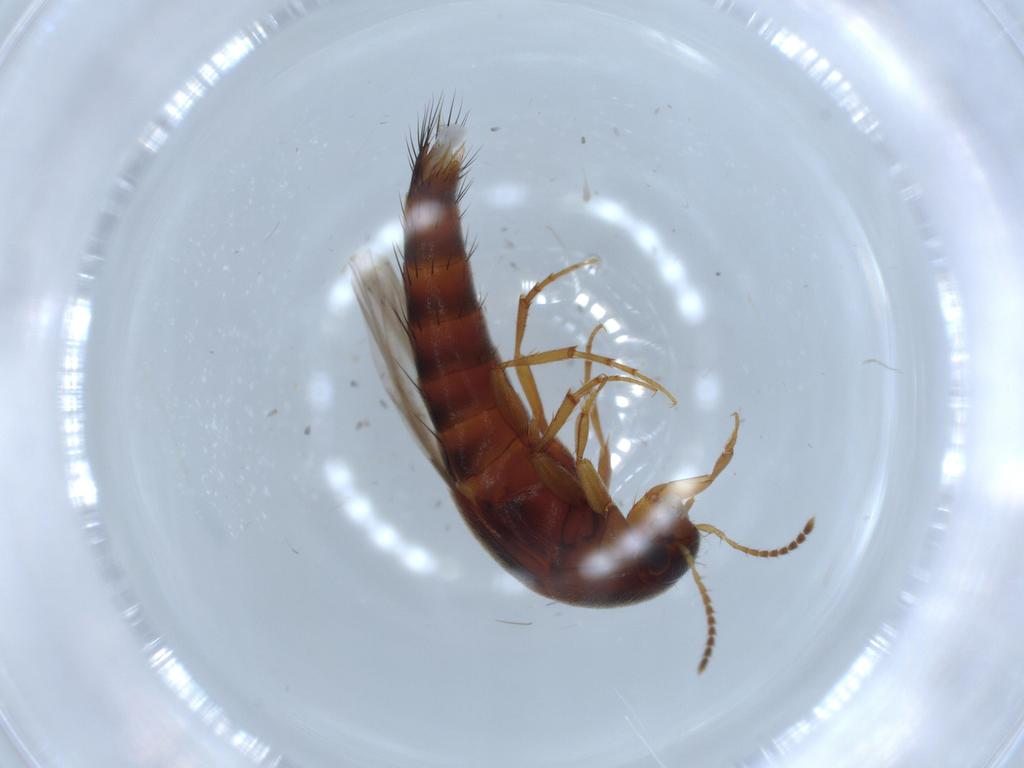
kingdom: Animalia
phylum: Arthropoda
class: Insecta
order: Coleoptera
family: Staphylinidae
